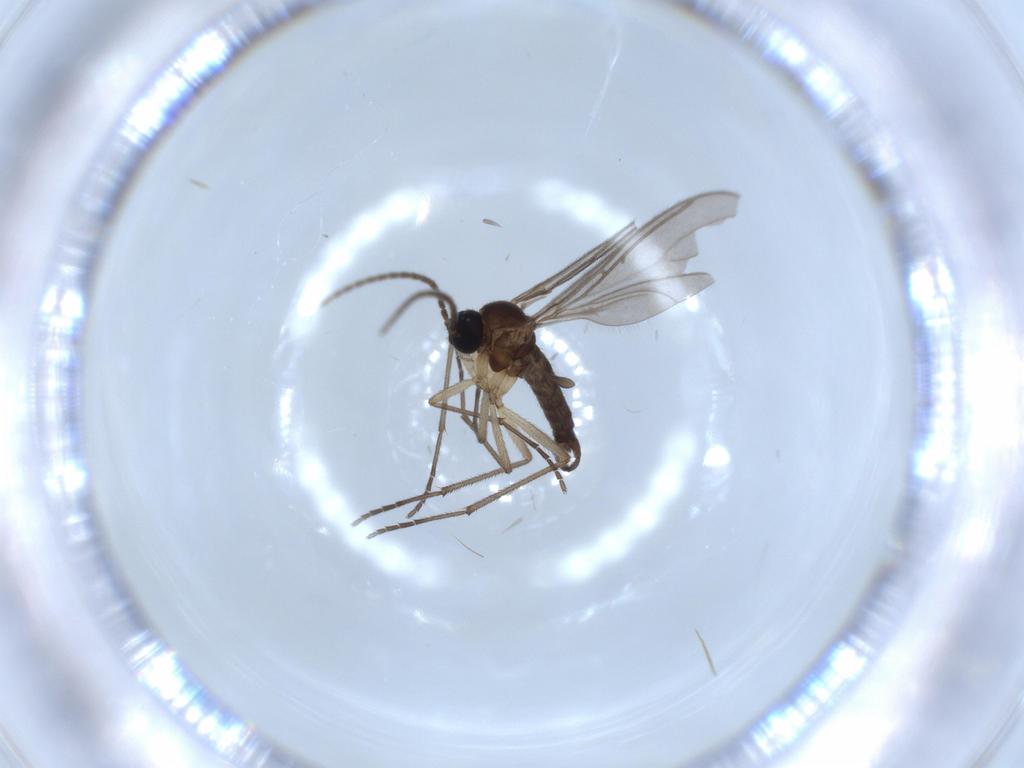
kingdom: Animalia
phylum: Arthropoda
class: Insecta
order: Diptera
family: Sciaridae
